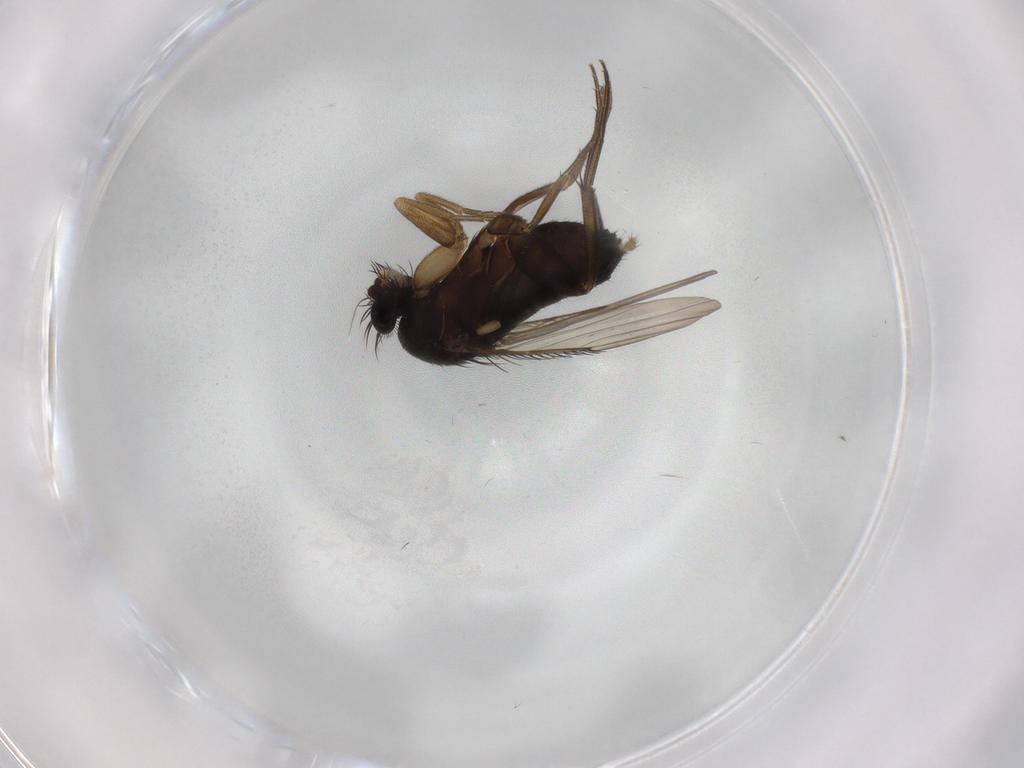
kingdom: Animalia
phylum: Arthropoda
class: Insecta
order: Diptera
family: Phoridae
